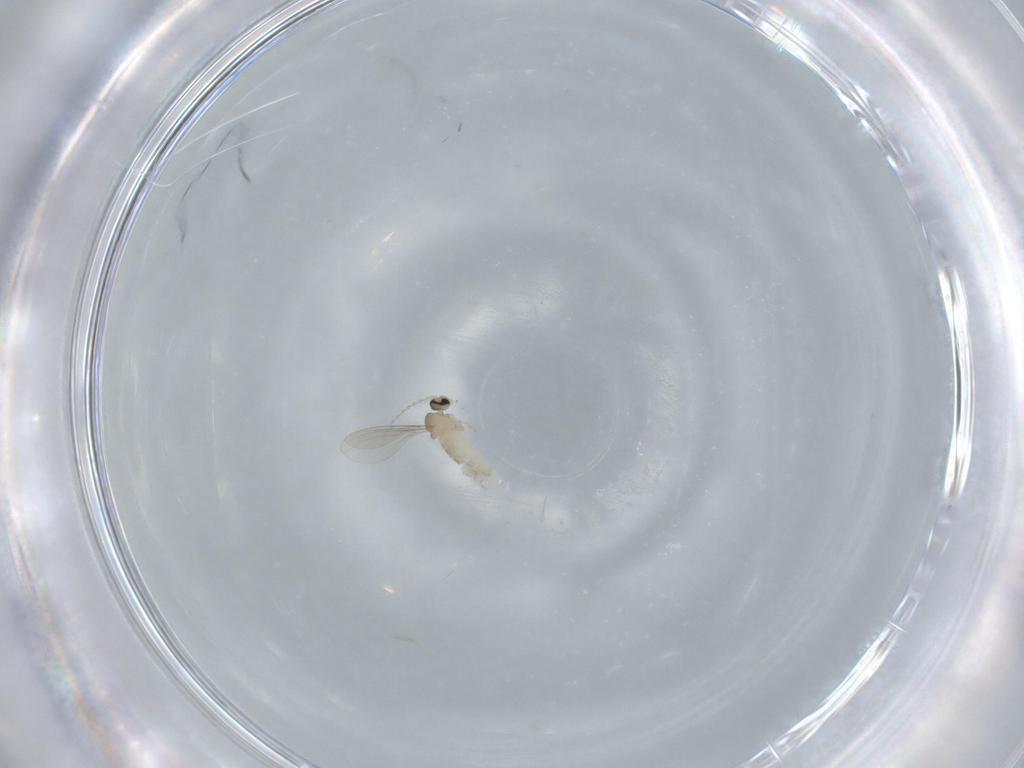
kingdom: Animalia
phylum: Arthropoda
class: Insecta
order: Diptera
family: Cecidomyiidae
